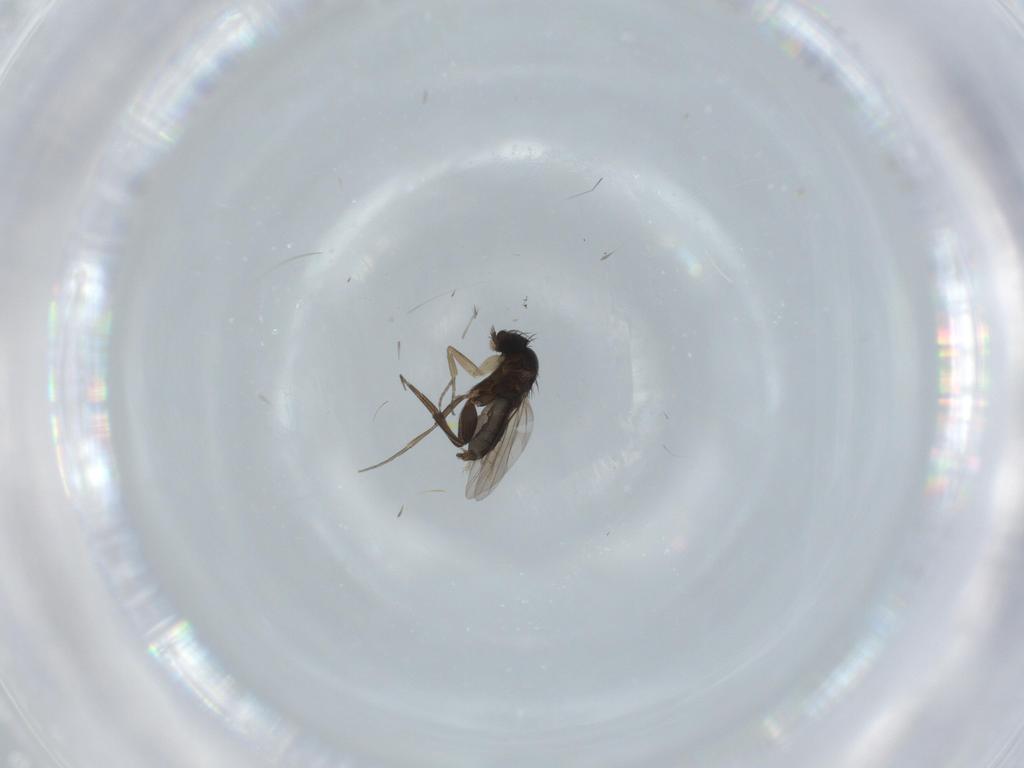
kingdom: Animalia
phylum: Arthropoda
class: Insecta
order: Diptera
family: Phoridae
